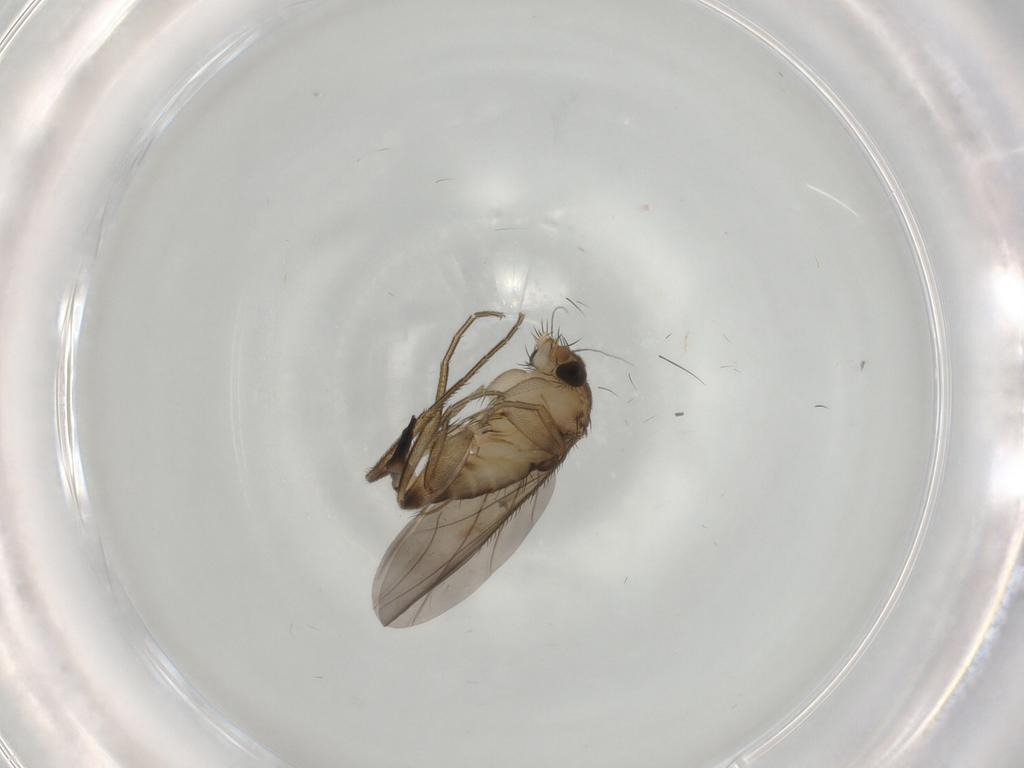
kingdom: Animalia
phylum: Arthropoda
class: Insecta
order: Diptera
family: Phoridae
